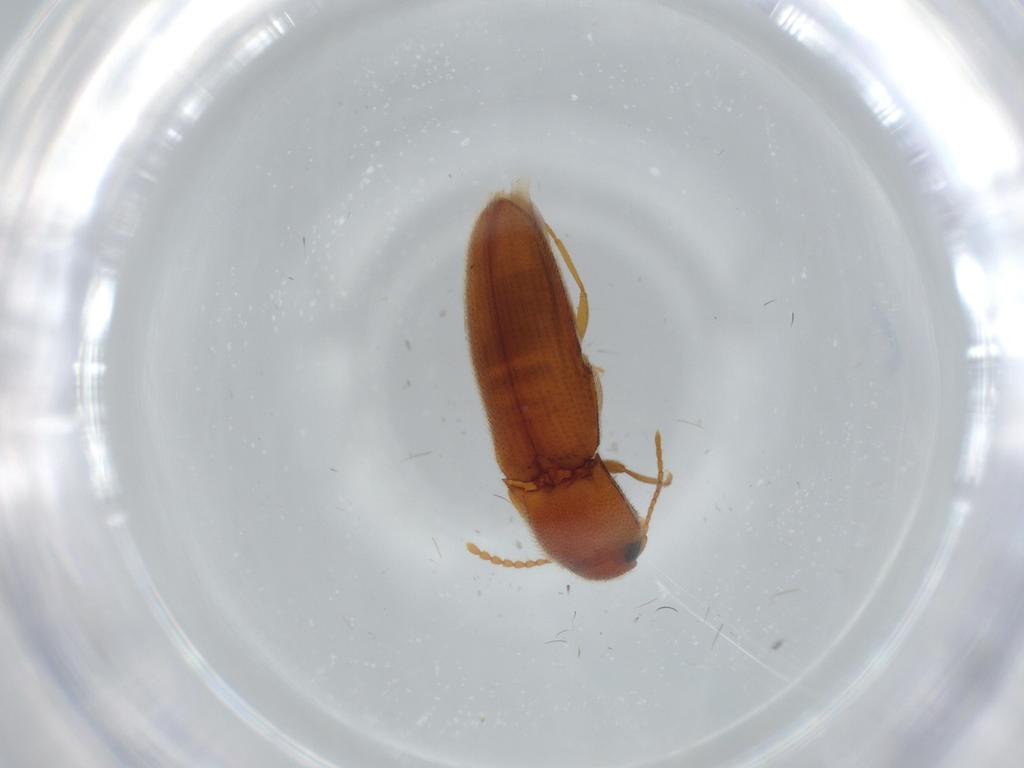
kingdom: Animalia
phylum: Arthropoda
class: Insecta
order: Coleoptera
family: Elateridae
